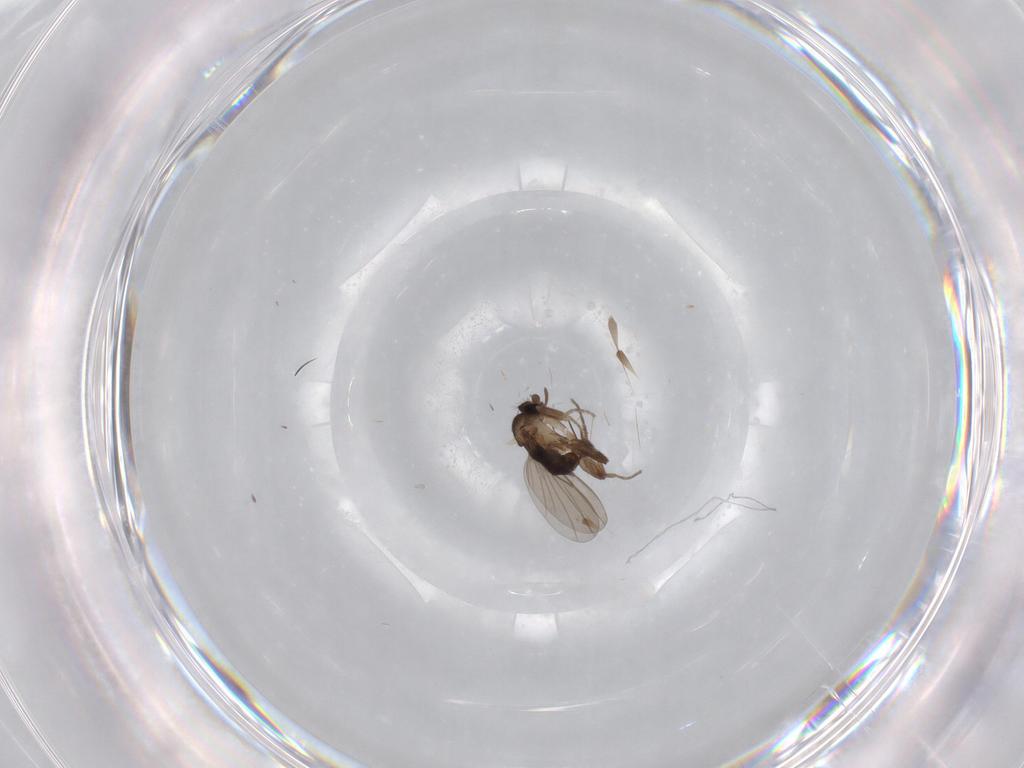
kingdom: Animalia
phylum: Arthropoda
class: Insecta
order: Diptera
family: Cecidomyiidae
